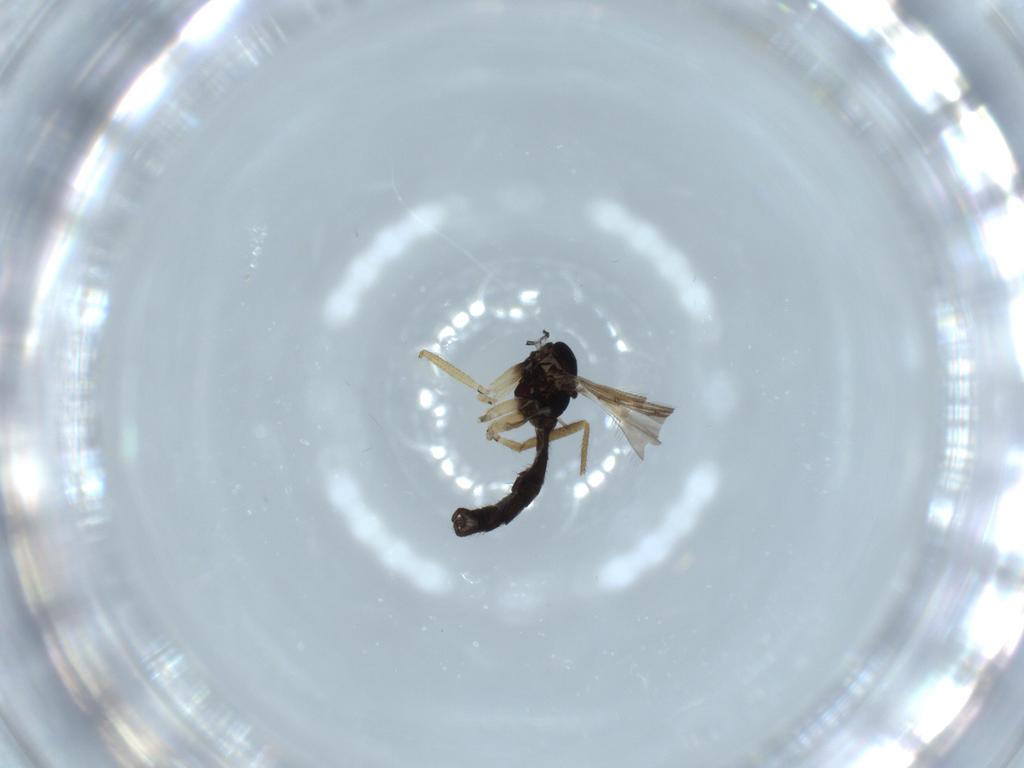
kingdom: Animalia
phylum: Arthropoda
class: Insecta
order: Diptera
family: Sciaridae
